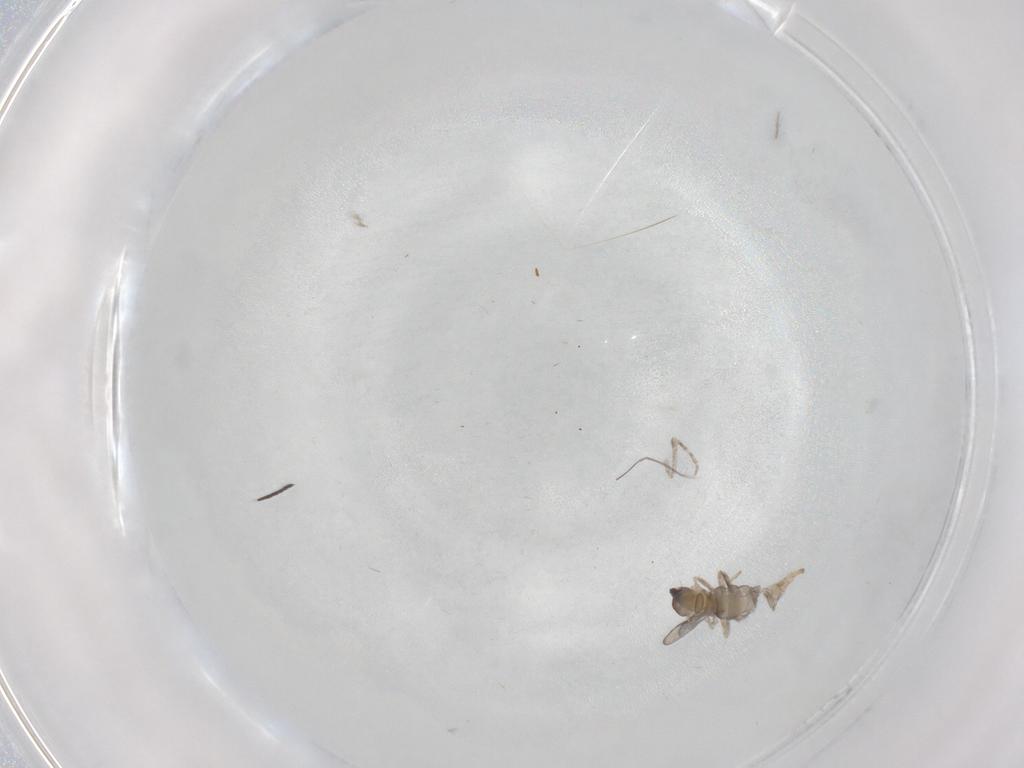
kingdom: Animalia
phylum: Arthropoda
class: Insecta
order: Diptera
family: Cecidomyiidae
